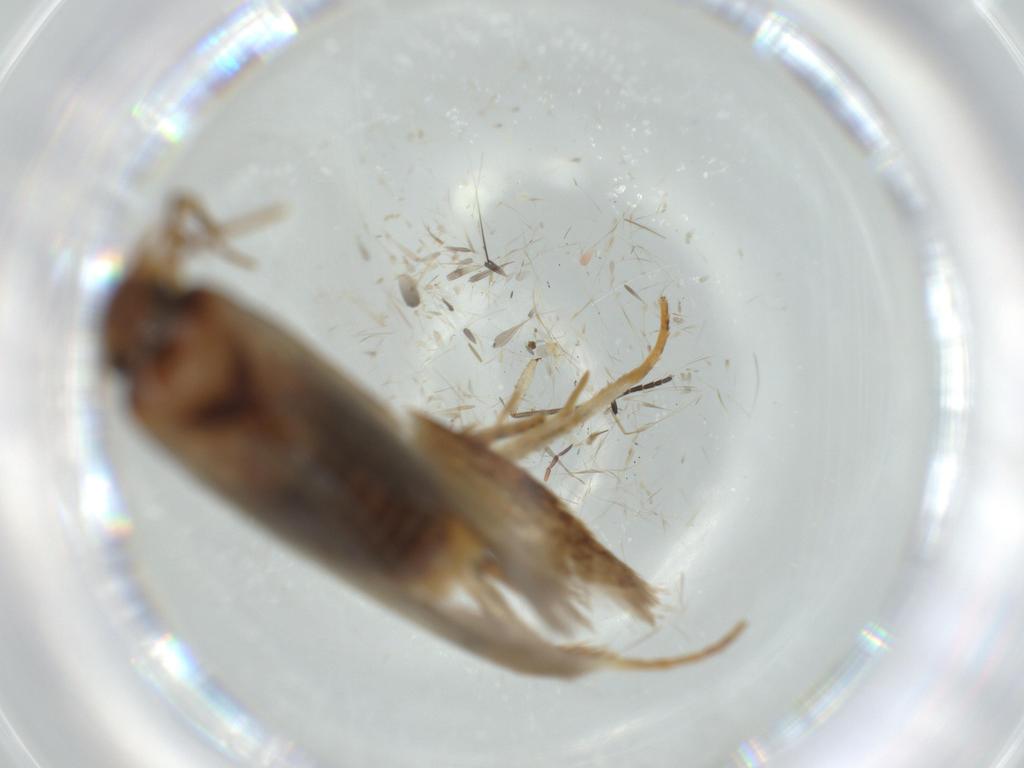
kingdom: Animalia
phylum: Arthropoda
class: Insecta
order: Lepidoptera
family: Coleophoridae
